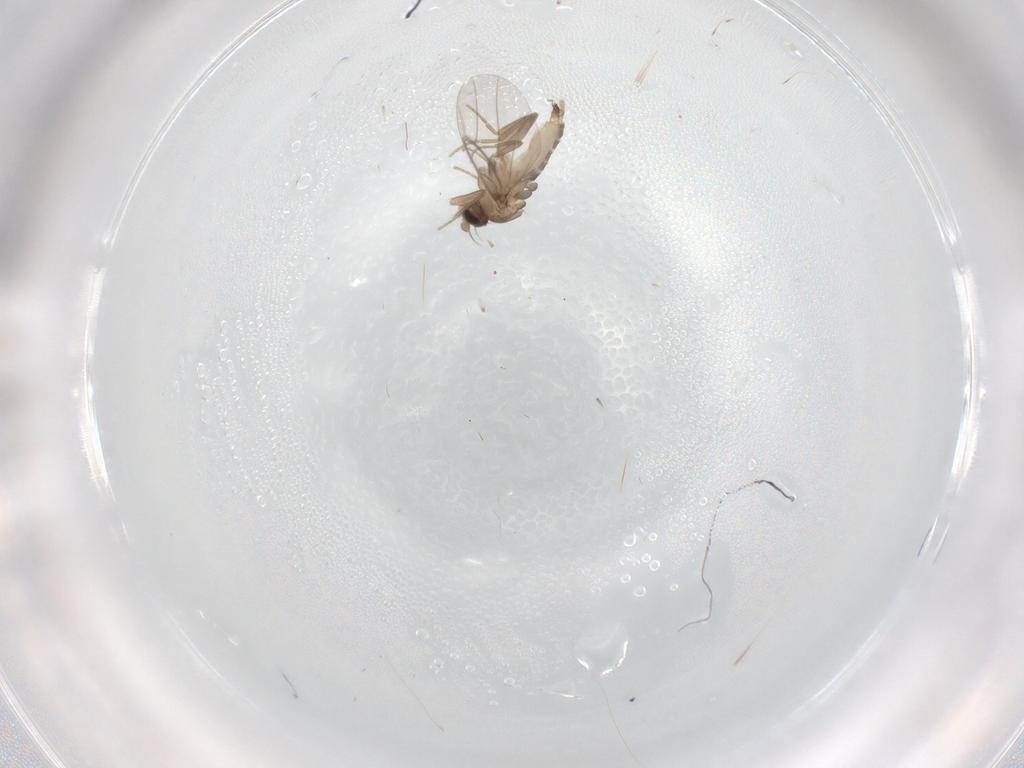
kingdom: Animalia
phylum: Arthropoda
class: Insecta
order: Diptera
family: Cecidomyiidae
